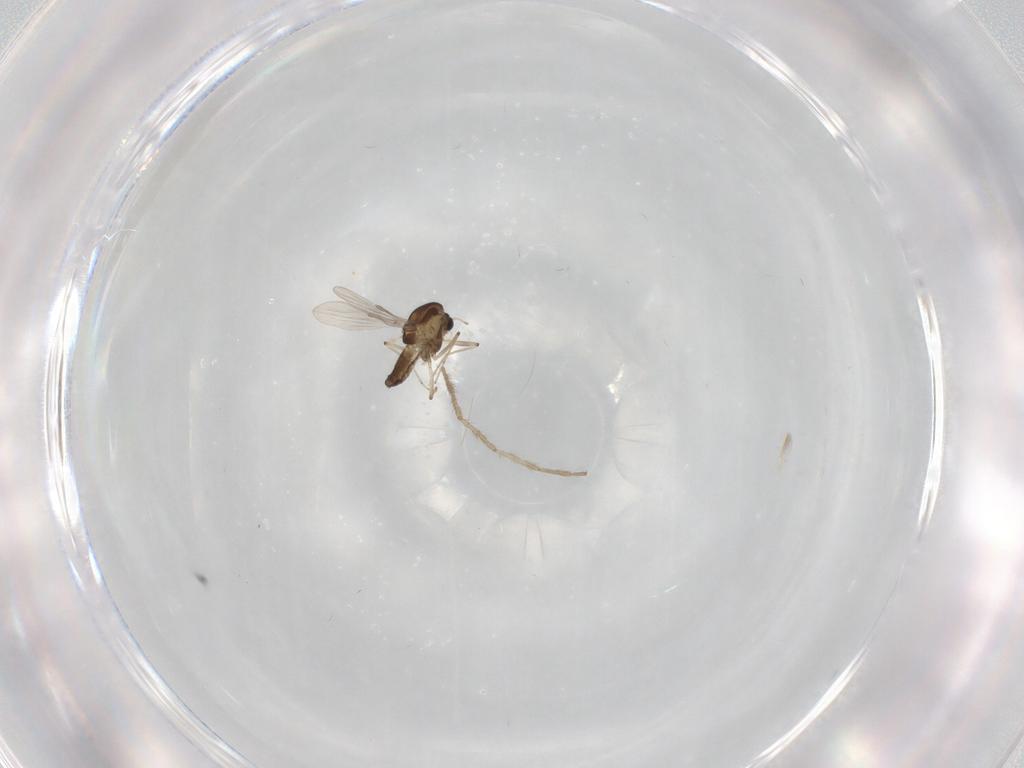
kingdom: Animalia
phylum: Arthropoda
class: Insecta
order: Diptera
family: Chironomidae
